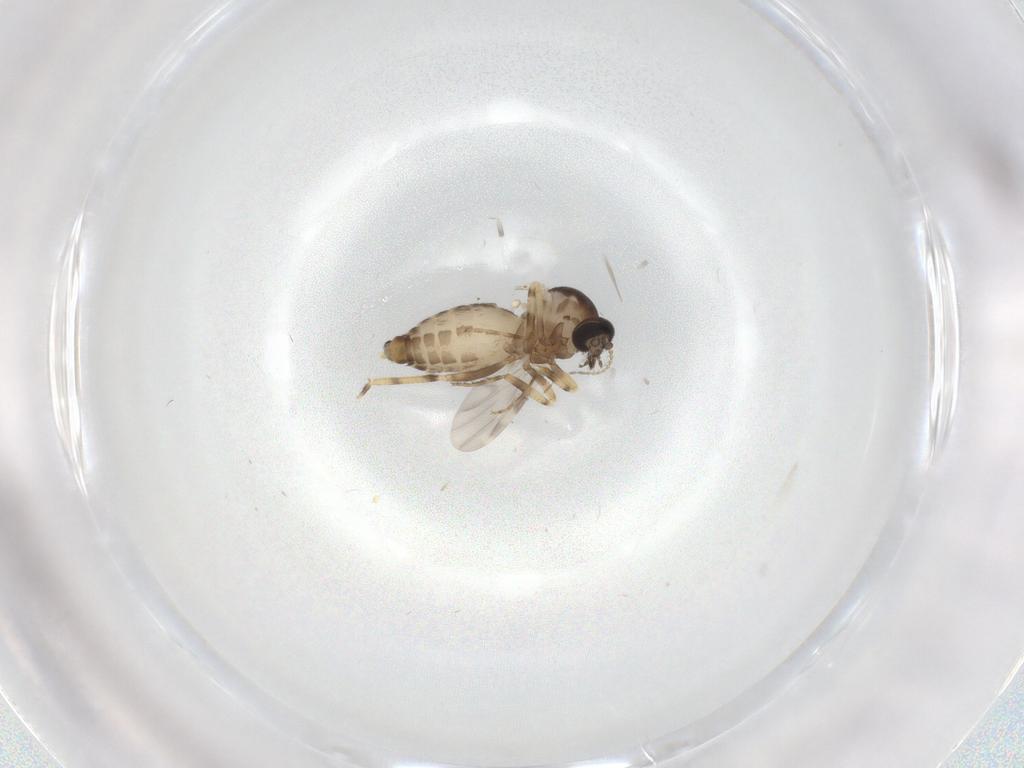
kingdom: Animalia
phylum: Arthropoda
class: Insecta
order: Diptera
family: Ceratopogonidae
